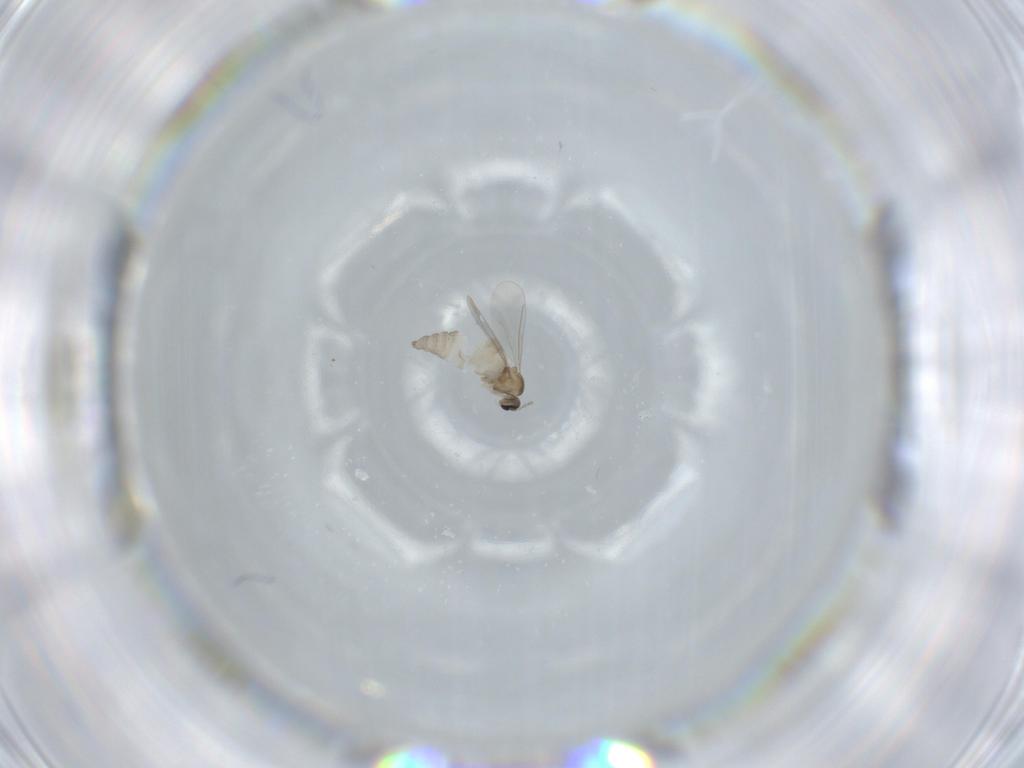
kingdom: Animalia
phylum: Arthropoda
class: Insecta
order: Diptera
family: Cecidomyiidae
